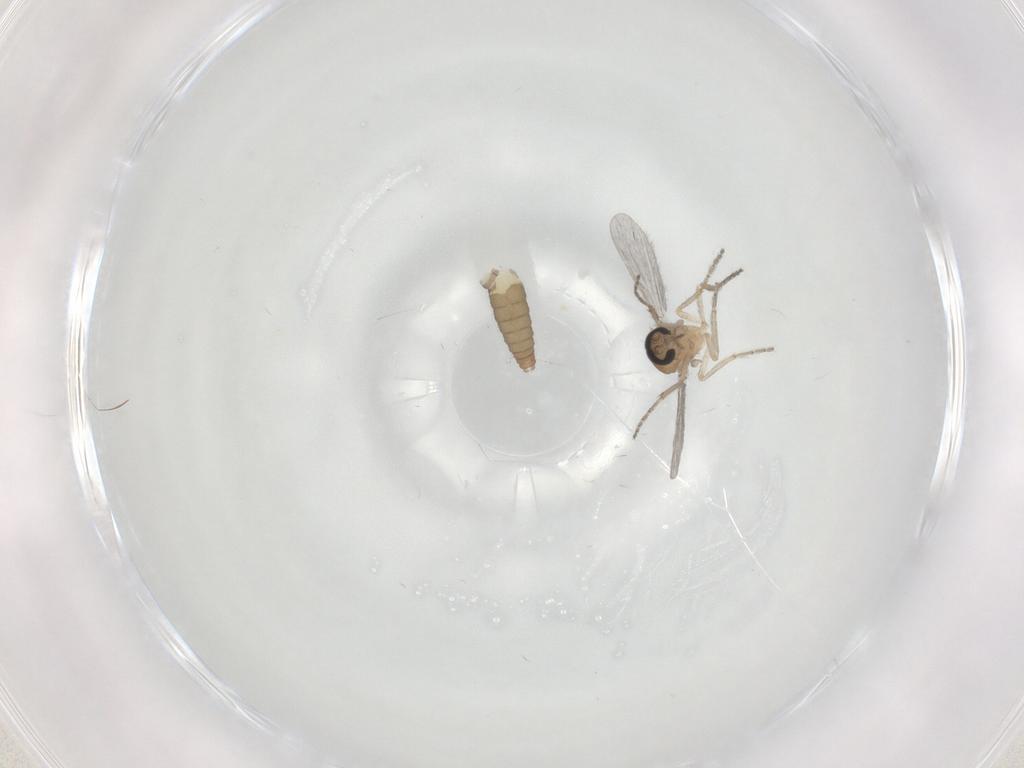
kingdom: Animalia
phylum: Arthropoda
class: Insecta
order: Diptera
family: Ceratopogonidae
